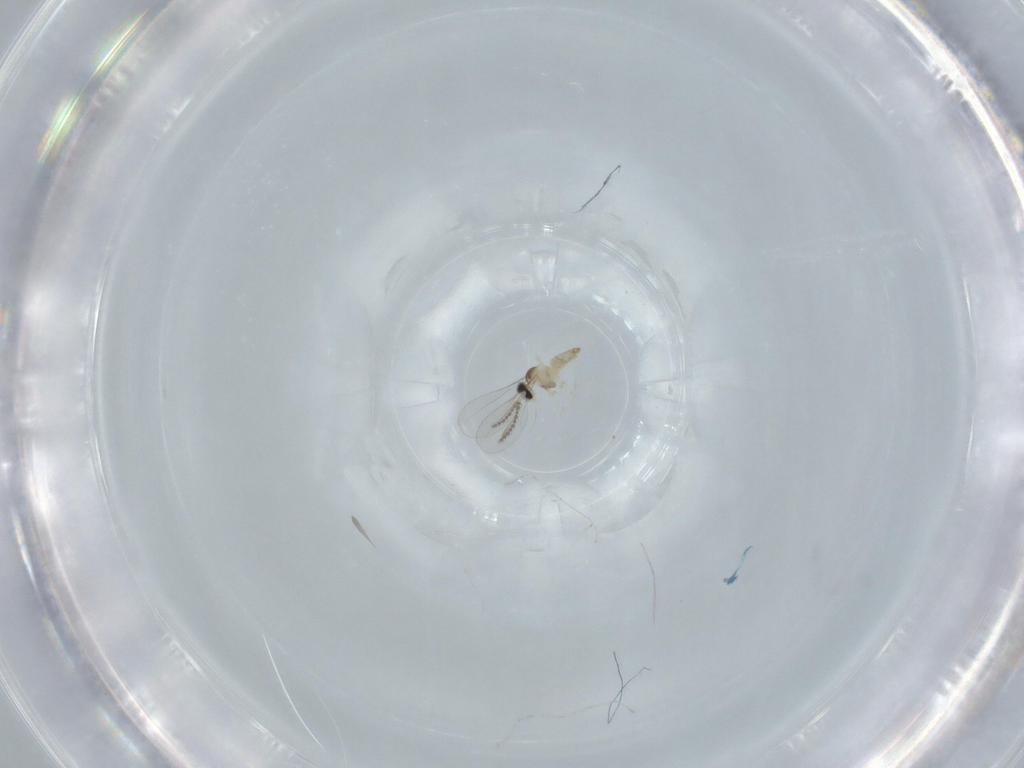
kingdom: Animalia
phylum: Arthropoda
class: Insecta
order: Diptera
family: Cecidomyiidae
